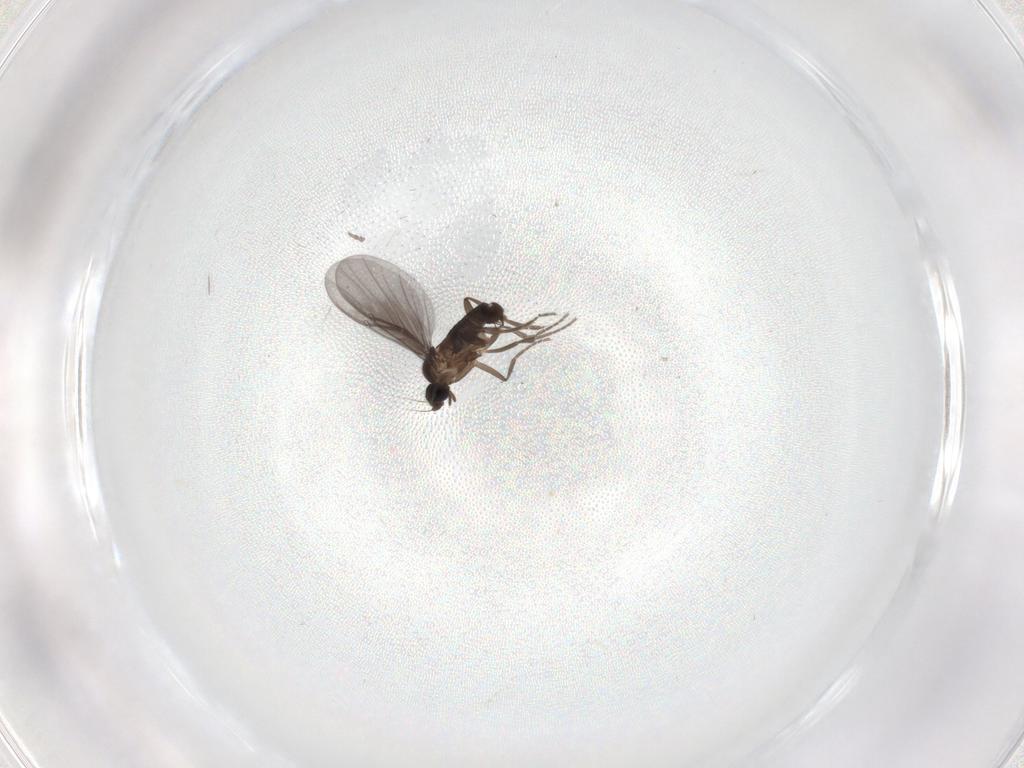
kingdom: Animalia
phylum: Arthropoda
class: Insecta
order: Diptera
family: Phoridae
